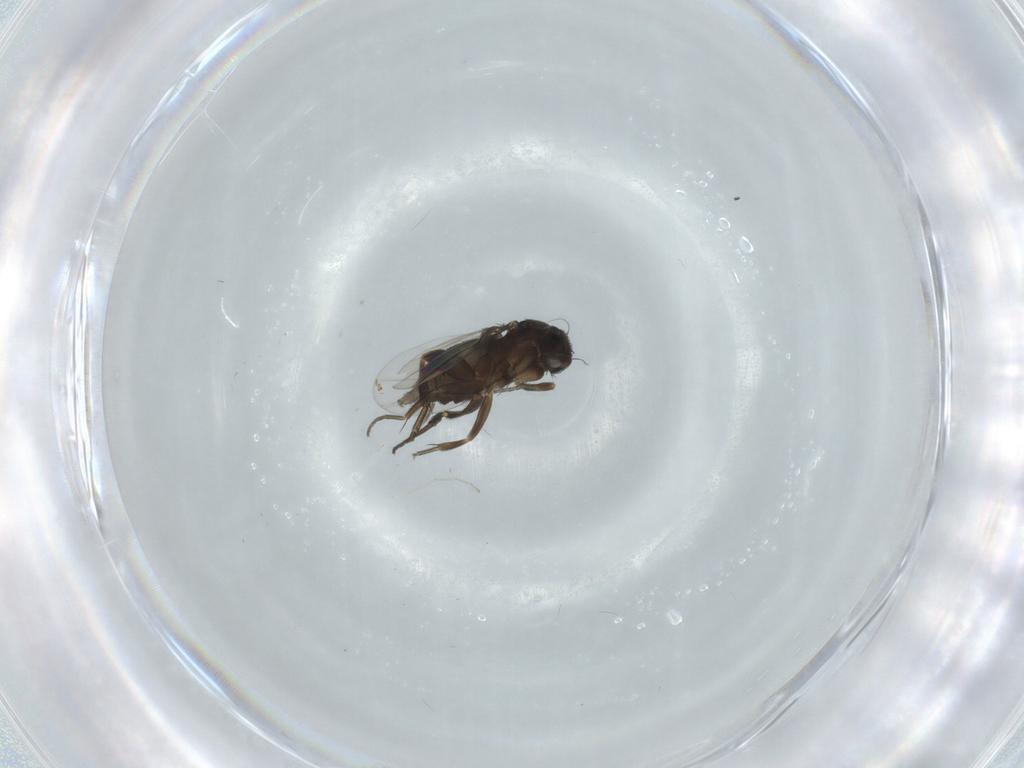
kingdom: Animalia
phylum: Arthropoda
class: Insecta
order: Diptera
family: Phoridae
